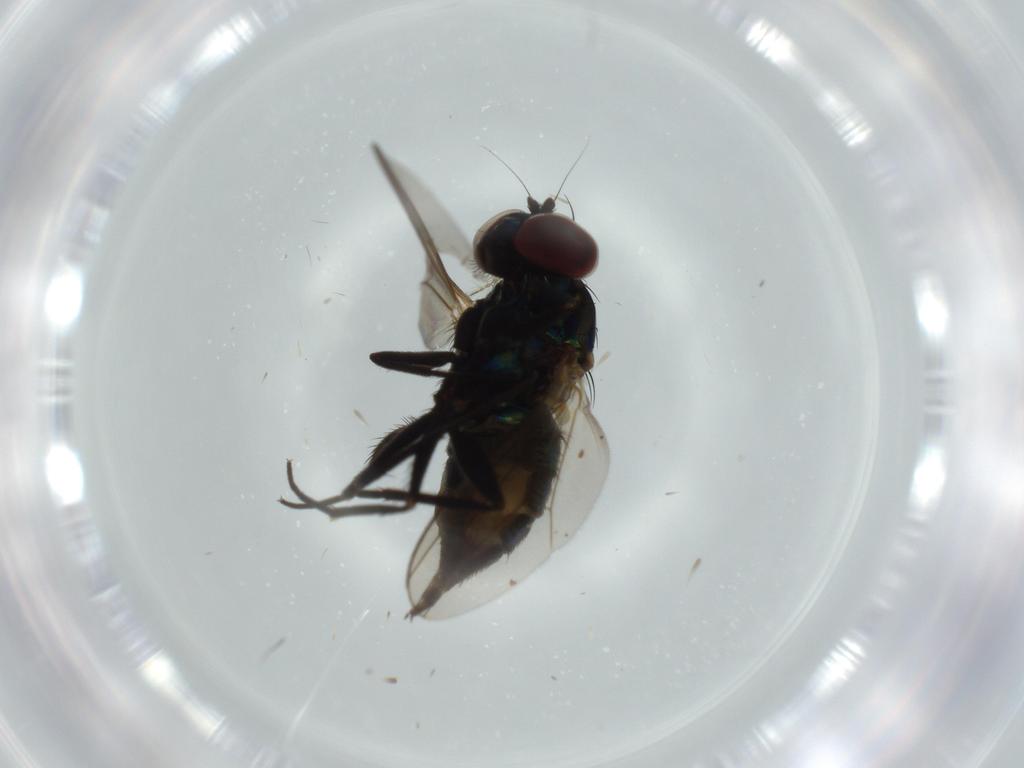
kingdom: Animalia
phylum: Arthropoda
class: Insecta
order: Diptera
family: Dolichopodidae
